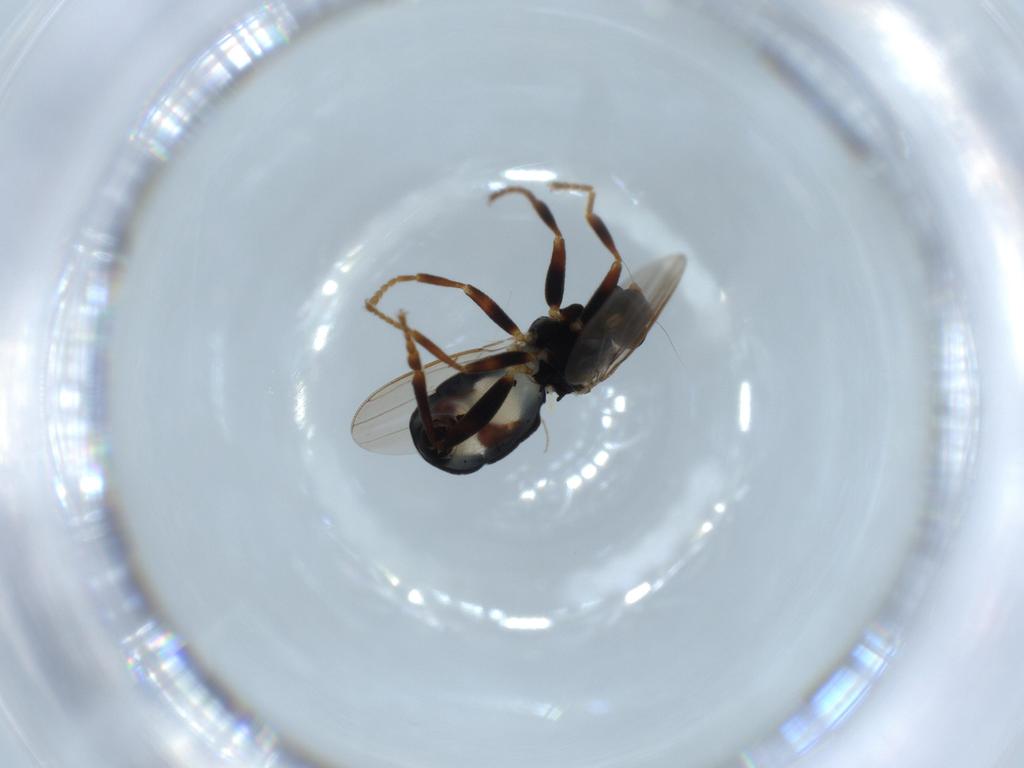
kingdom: Animalia
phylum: Arthropoda
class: Insecta
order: Diptera
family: Sphaeroceridae
